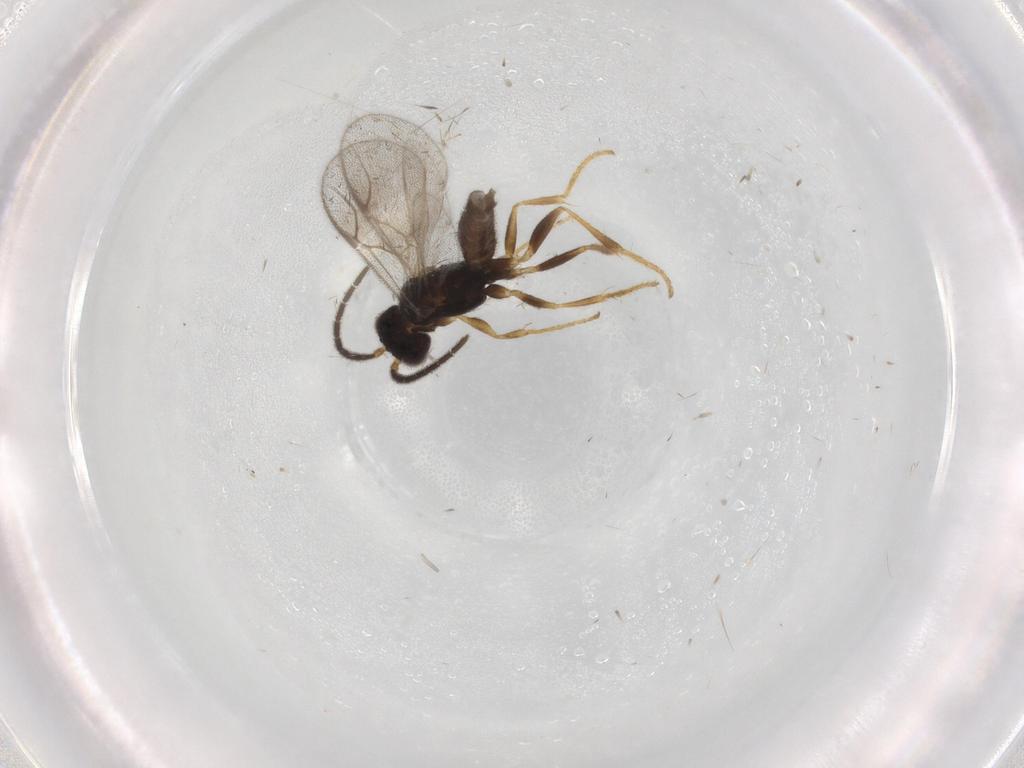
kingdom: Animalia
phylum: Arthropoda
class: Insecta
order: Hymenoptera
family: Dryinidae
